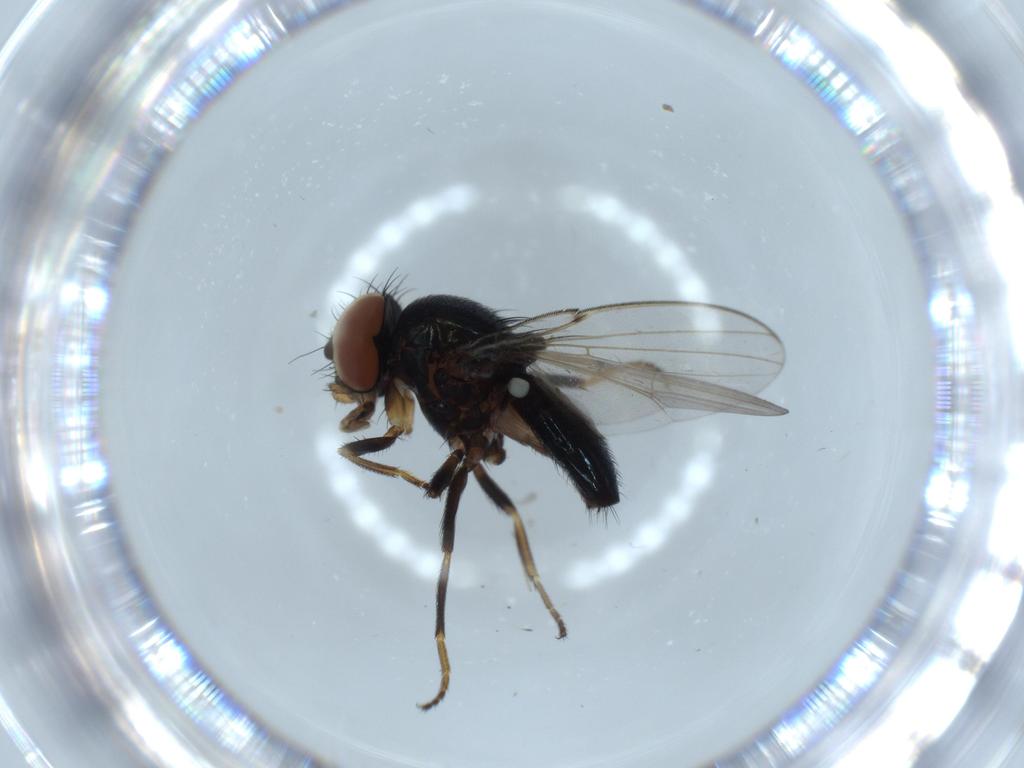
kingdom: Animalia
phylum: Arthropoda
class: Insecta
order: Diptera
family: Milichiidae
